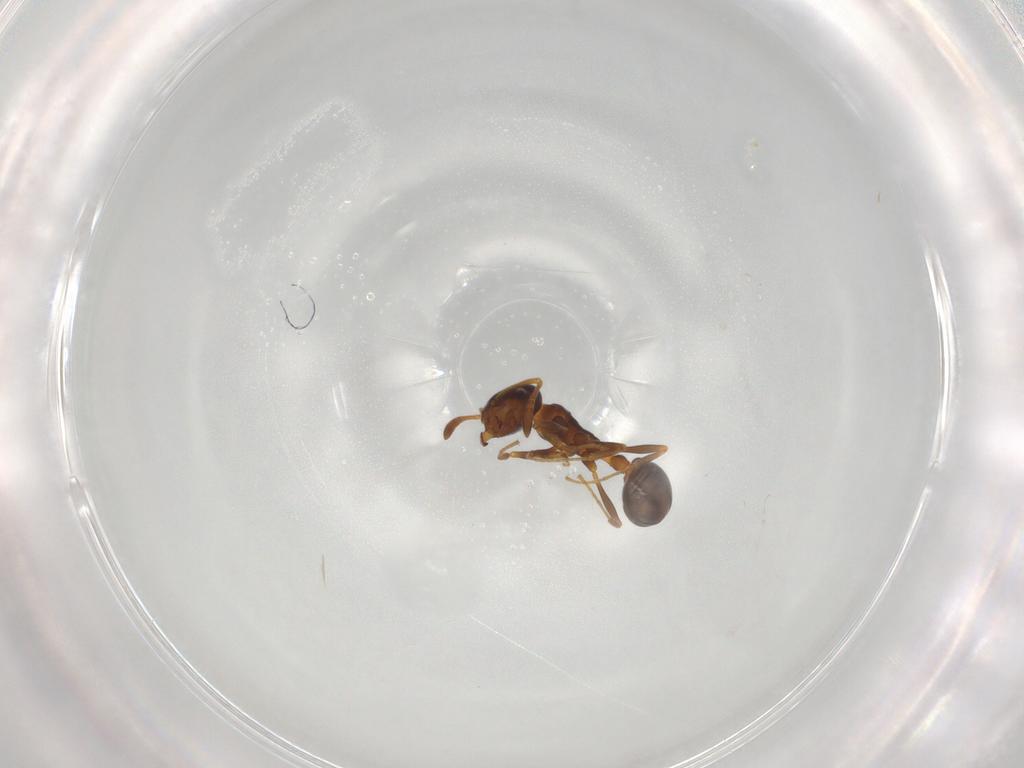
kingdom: Animalia
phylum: Arthropoda
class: Insecta
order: Hymenoptera
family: Formicidae
